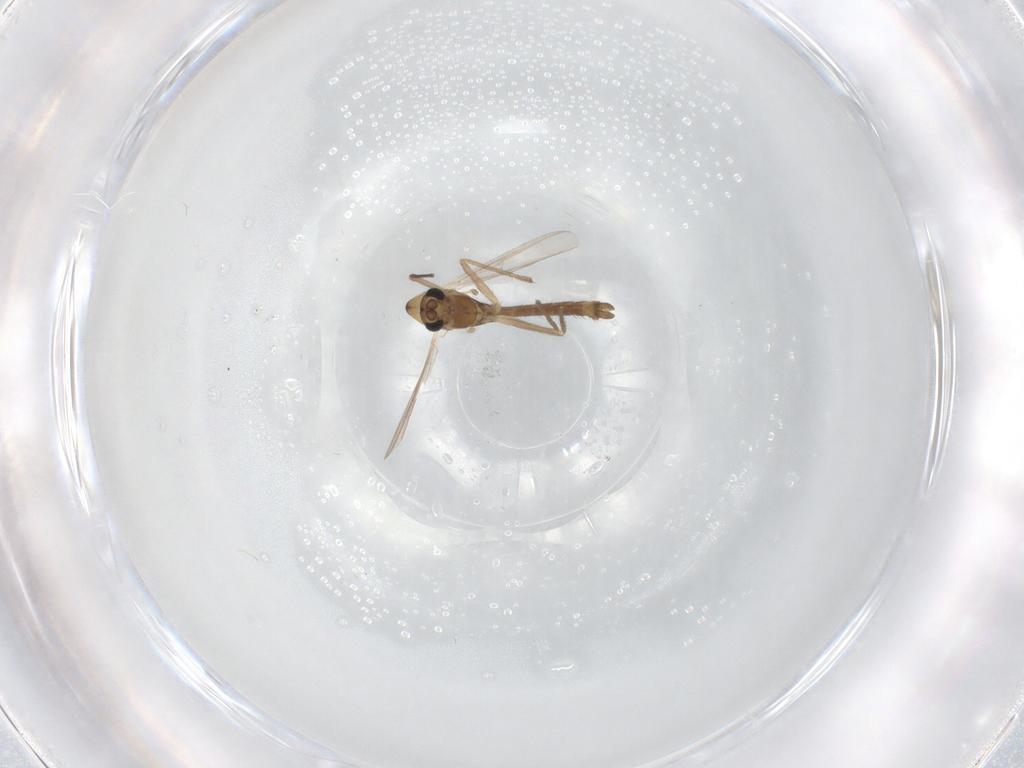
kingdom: Animalia
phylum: Arthropoda
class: Insecta
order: Diptera
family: Chironomidae
